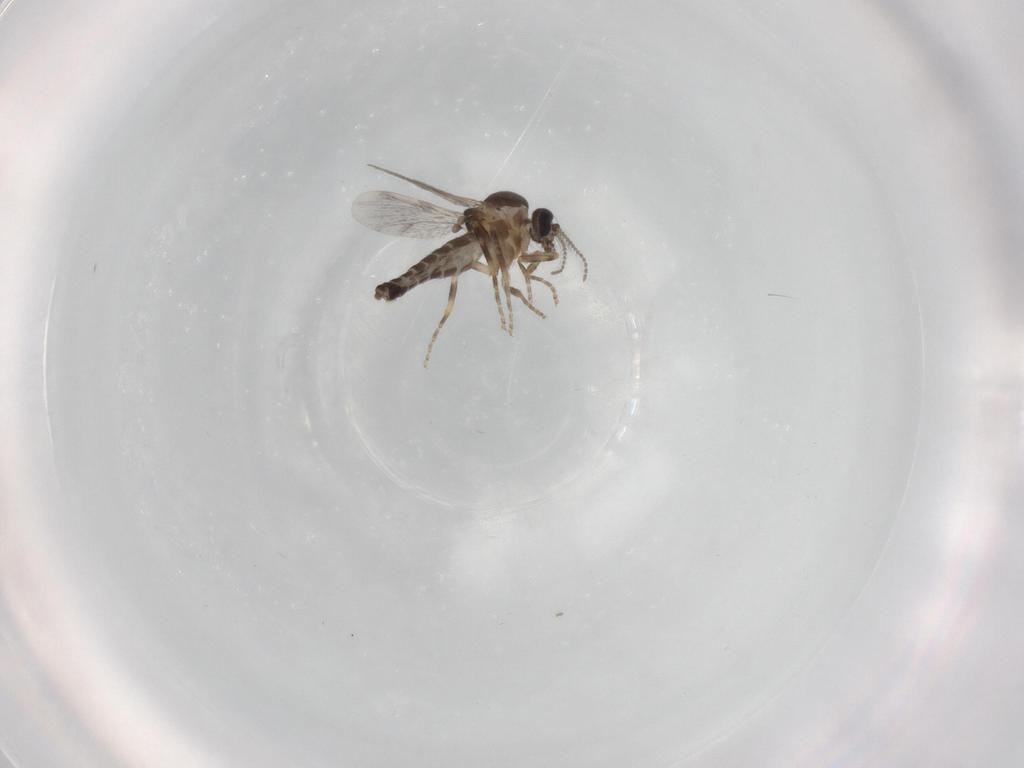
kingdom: Animalia
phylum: Arthropoda
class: Insecta
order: Diptera
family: Ceratopogonidae
